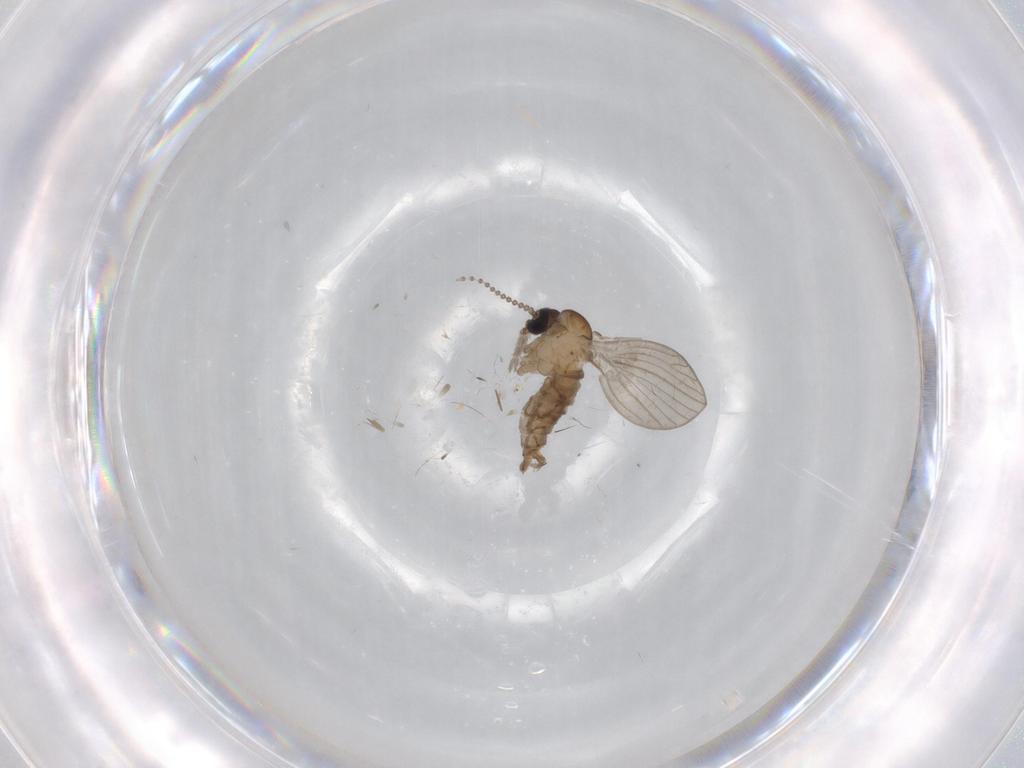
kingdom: Animalia
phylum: Arthropoda
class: Insecta
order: Diptera
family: Psychodidae
